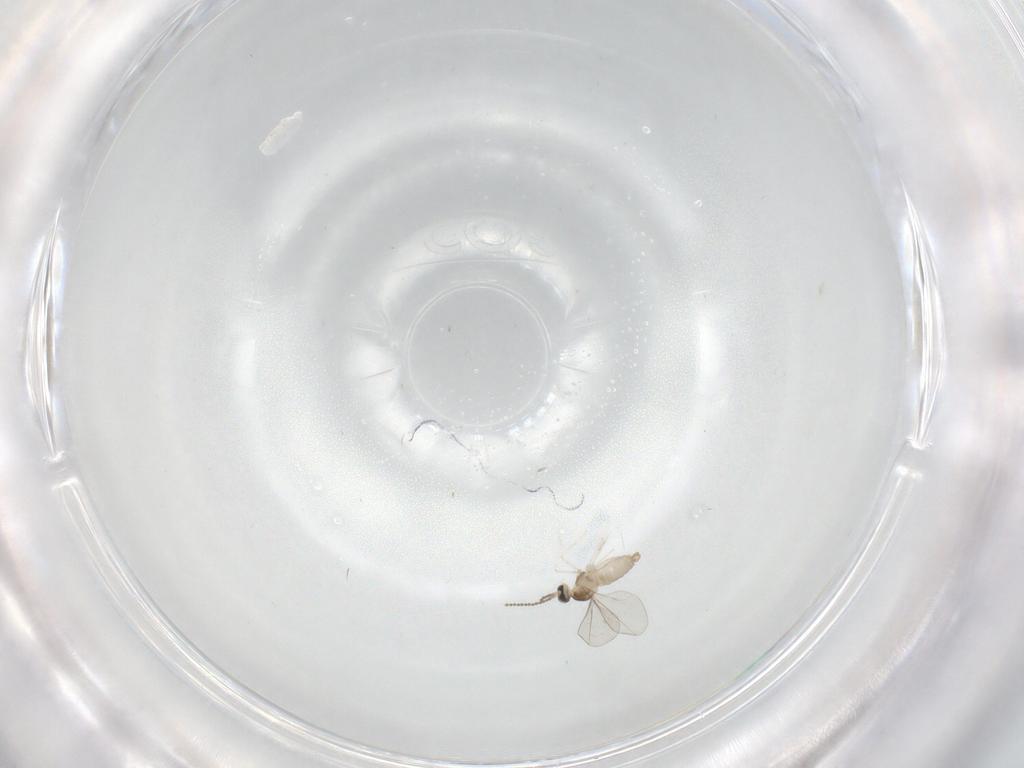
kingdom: Animalia
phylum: Arthropoda
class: Insecta
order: Diptera
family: Cecidomyiidae
